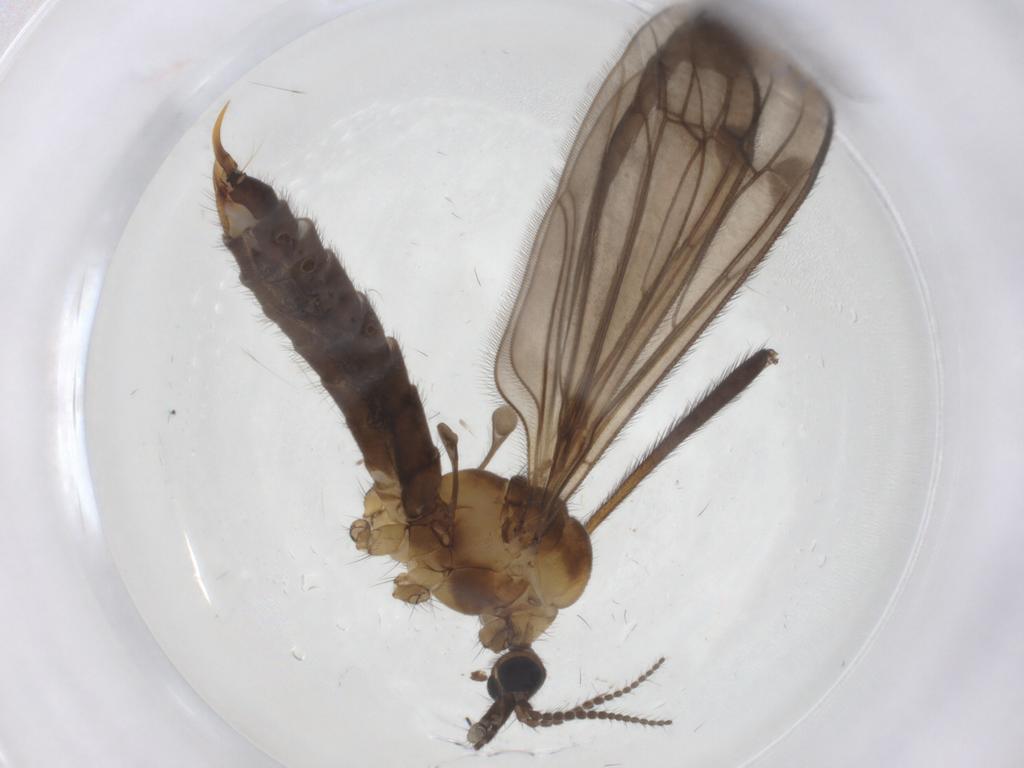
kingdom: Animalia
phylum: Arthropoda
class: Insecta
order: Diptera
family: Limoniidae
